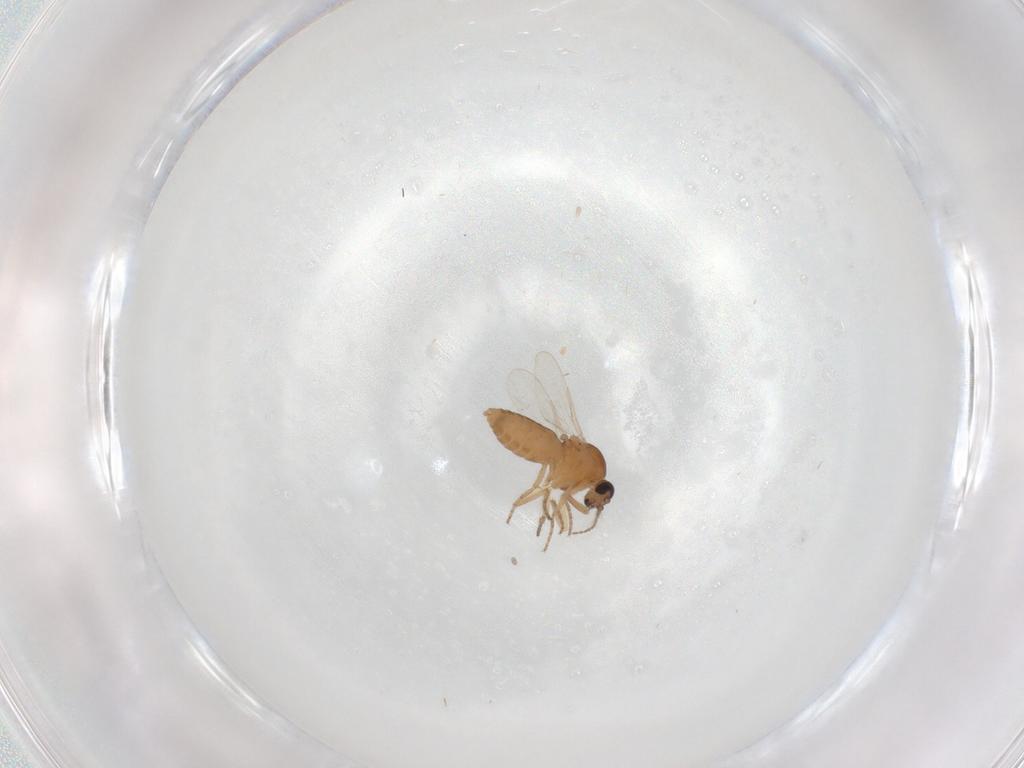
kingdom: Animalia
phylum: Arthropoda
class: Insecta
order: Diptera
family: Ceratopogonidae
